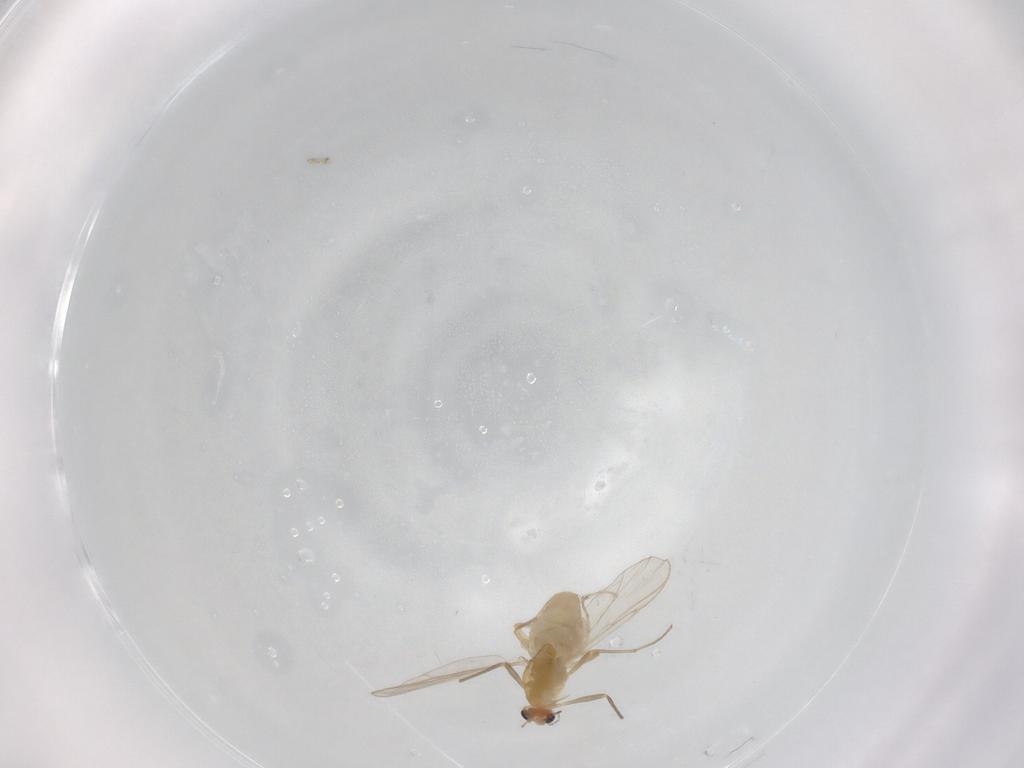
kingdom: Animalia
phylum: Arthropoda
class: Insecta
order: Diptera
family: Chironomidae
